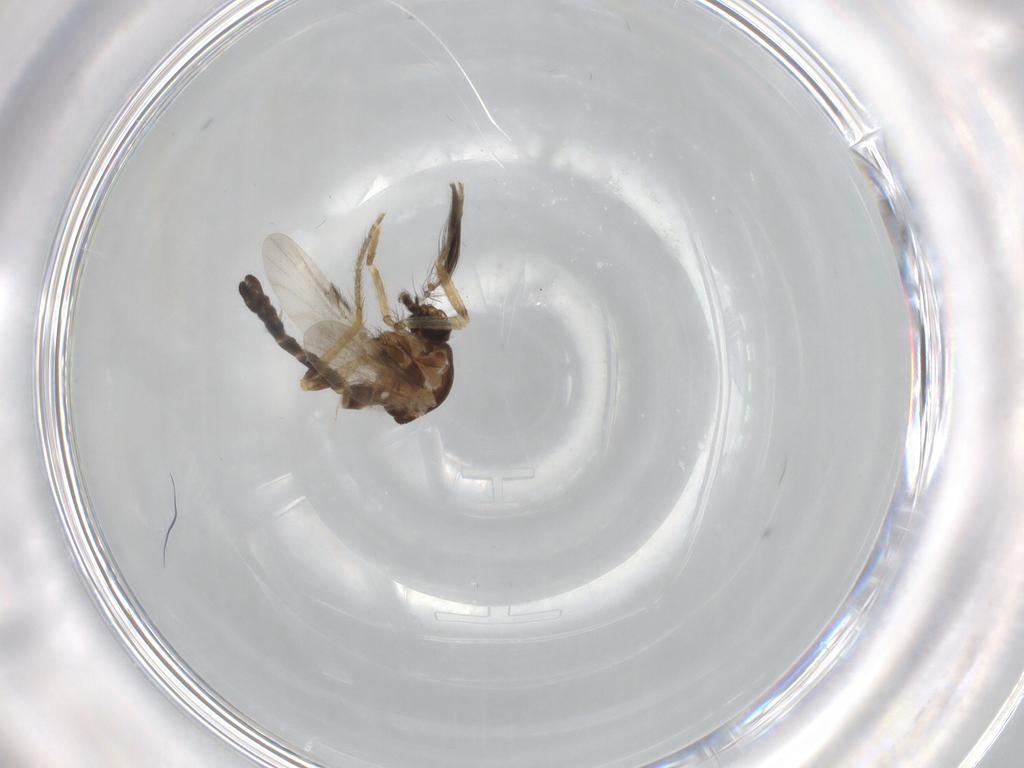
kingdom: Animalia
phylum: Arthropoda
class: Insecta
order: Diptera
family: Ceratopogonidae
